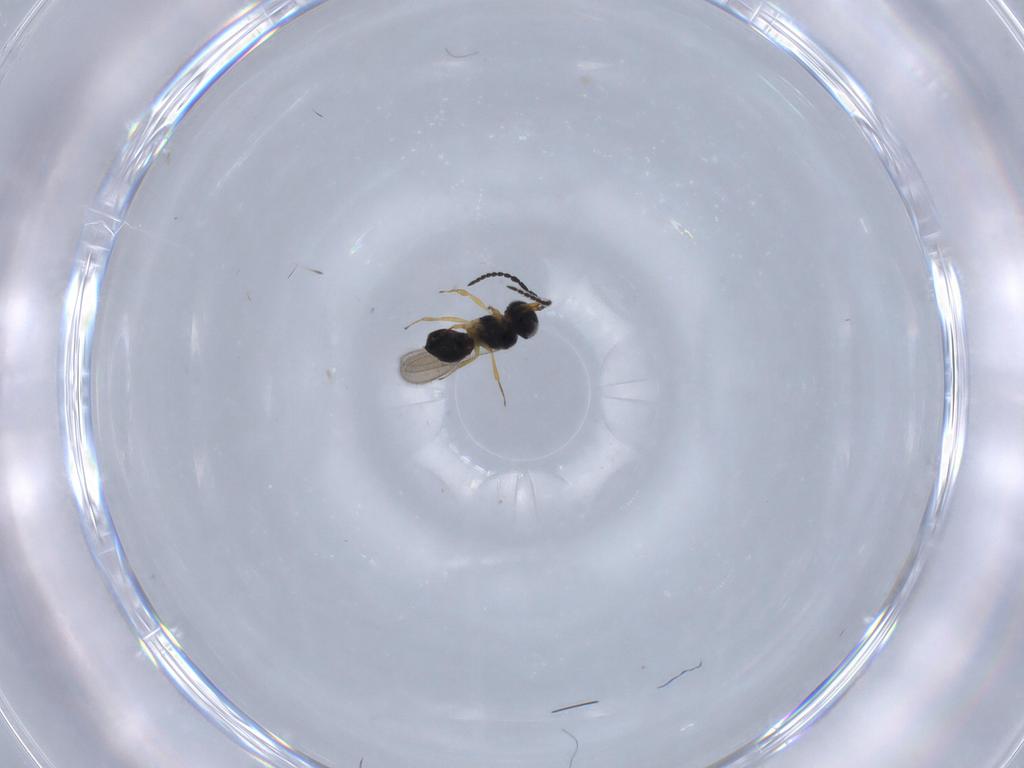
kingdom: Animalia
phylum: Arthropoda
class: Insecta
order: Hymenoptera
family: Scelionidae
